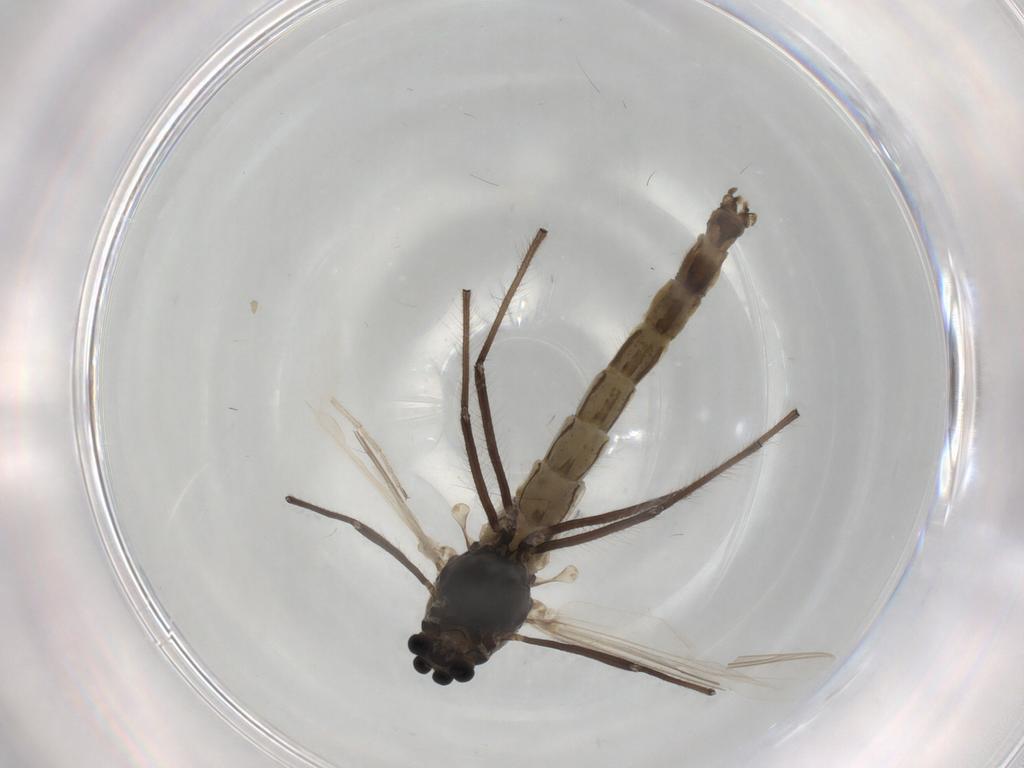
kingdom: Animalia
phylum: Arthropoda
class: Insecta
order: Diptera
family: Chironomidae
